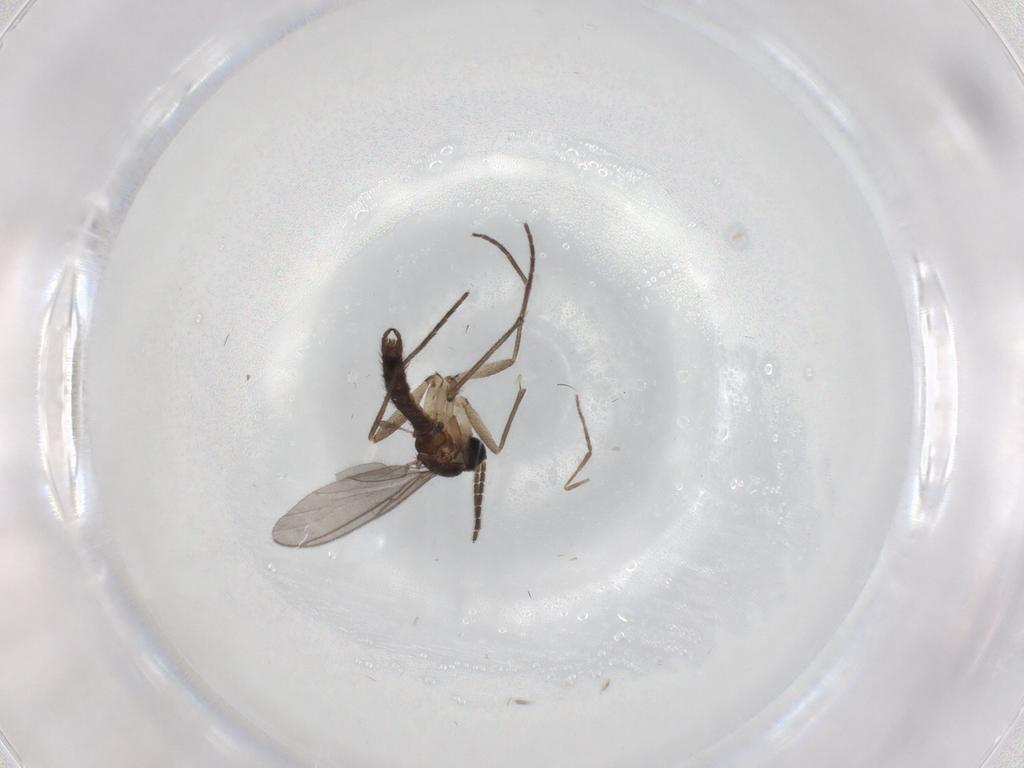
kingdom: Animalia
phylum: Arthropoda
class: Insecta
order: Diptera
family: Sciaridae
